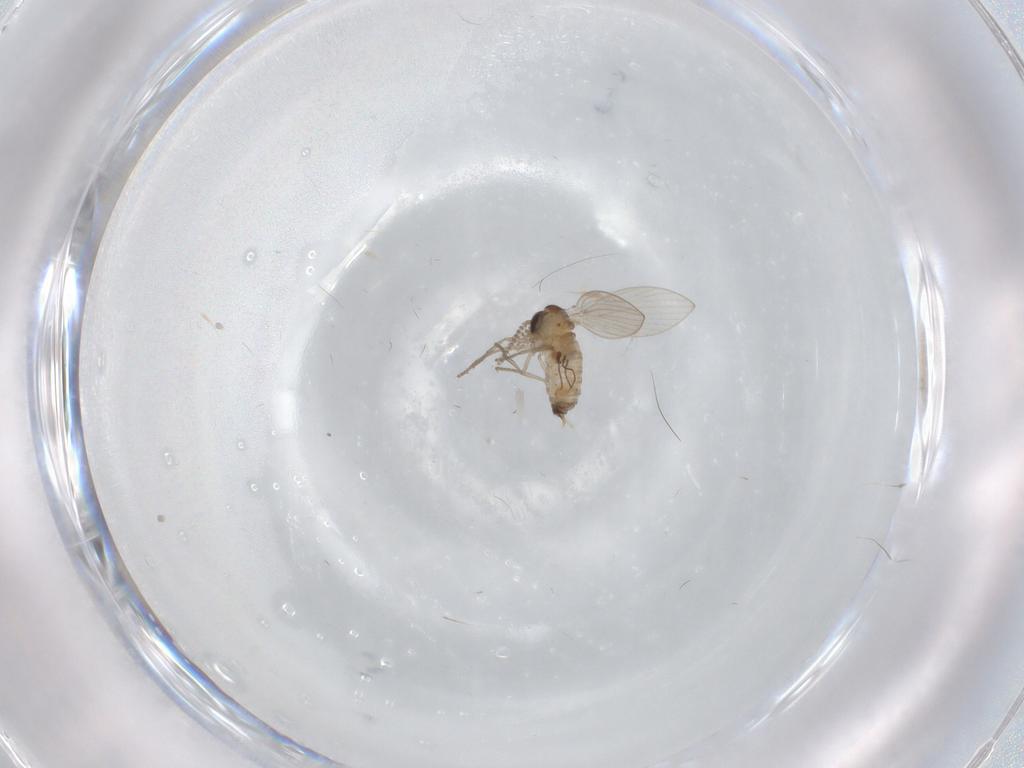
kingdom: Animalia
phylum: Arthropoda
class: Insecta
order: Diptera
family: Psychodidae
